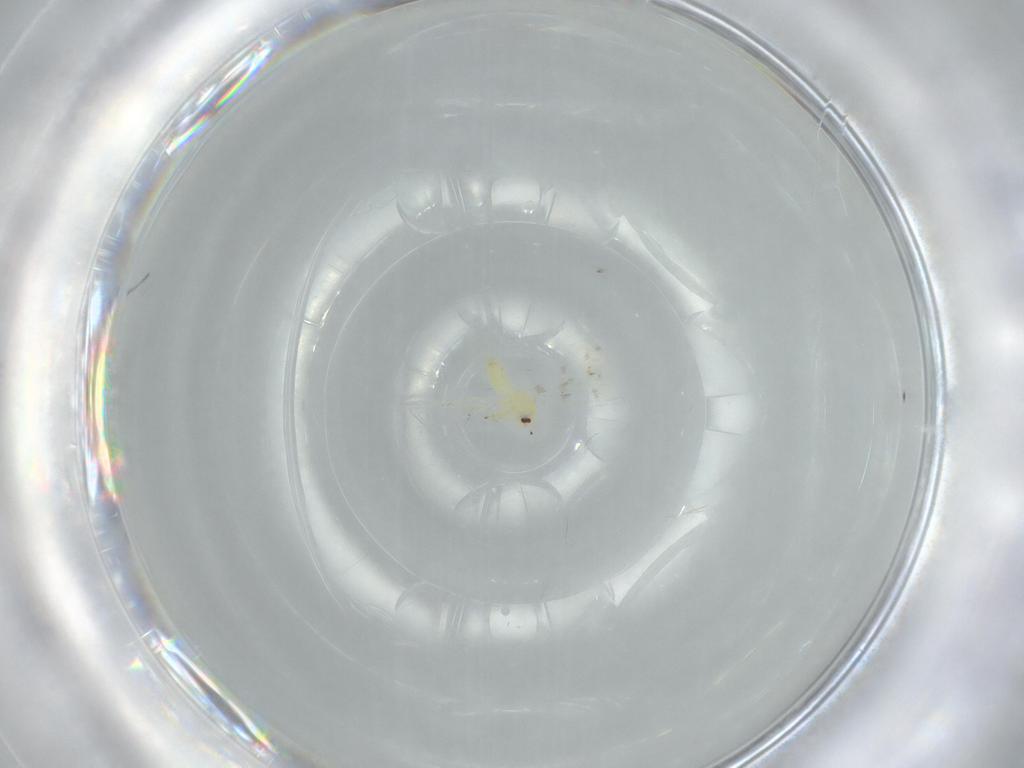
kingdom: Animalia
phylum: Arthropoda
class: Insecta
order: Hemiptera
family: Aleyrodidae
